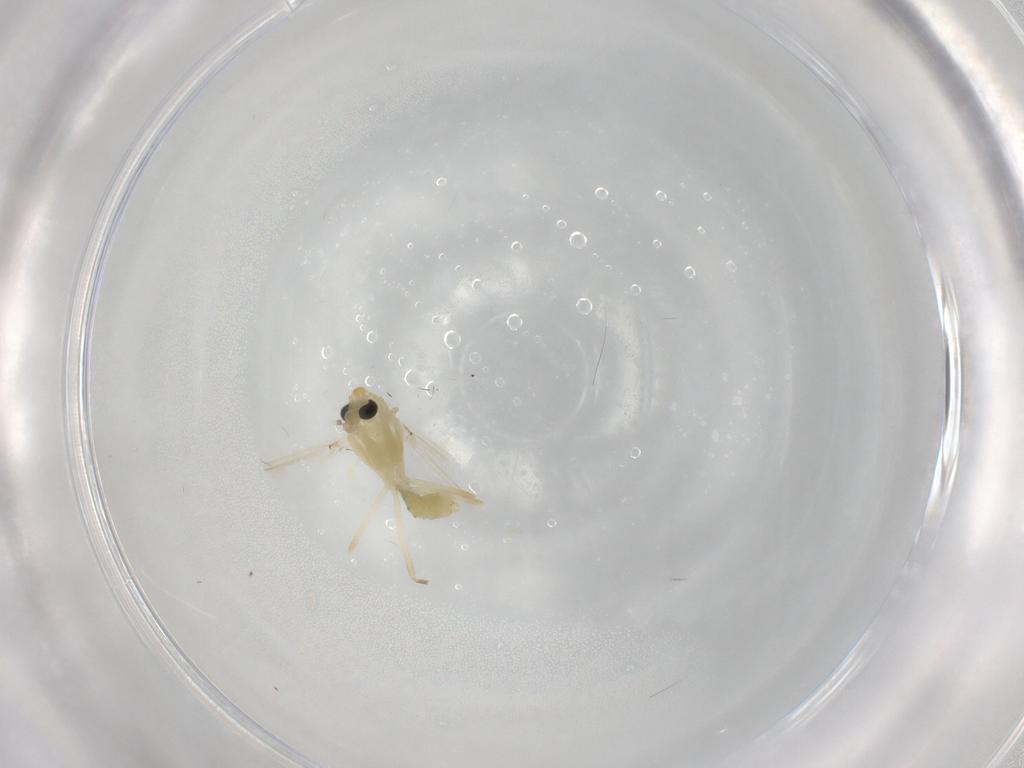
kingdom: Animalia
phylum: Arthropoda
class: Insecta
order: Diptera
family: Chironomidae
